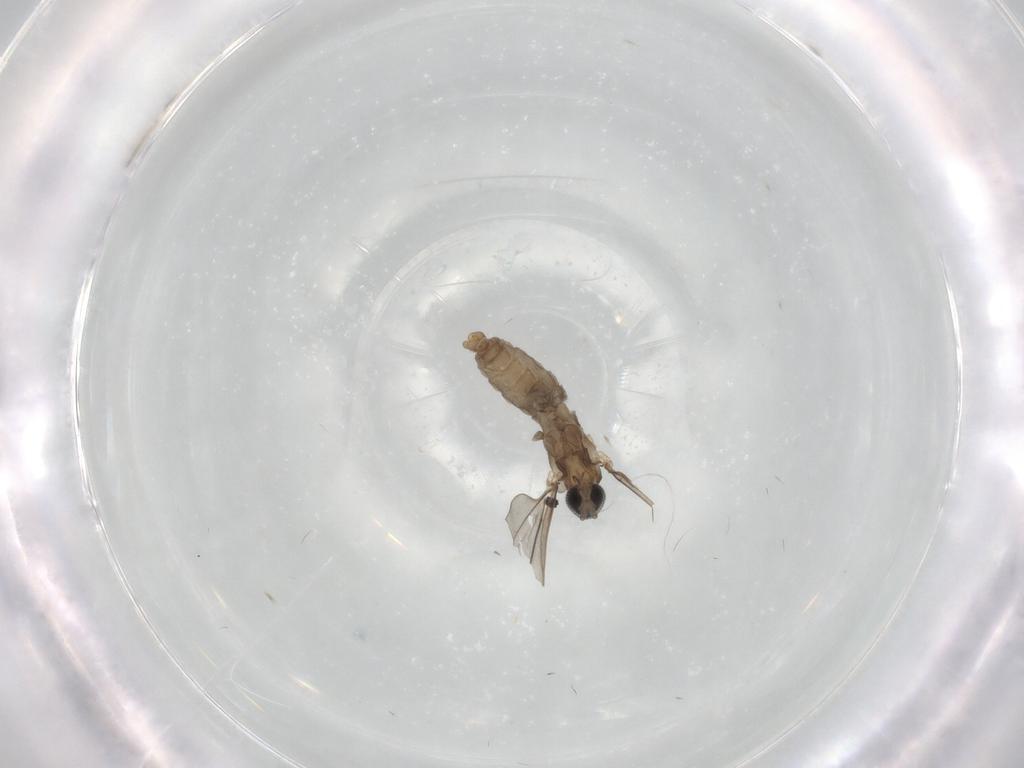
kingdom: Animalia
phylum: Arthropoda
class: Insecta
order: Diptera
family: Cecidomyiidae
